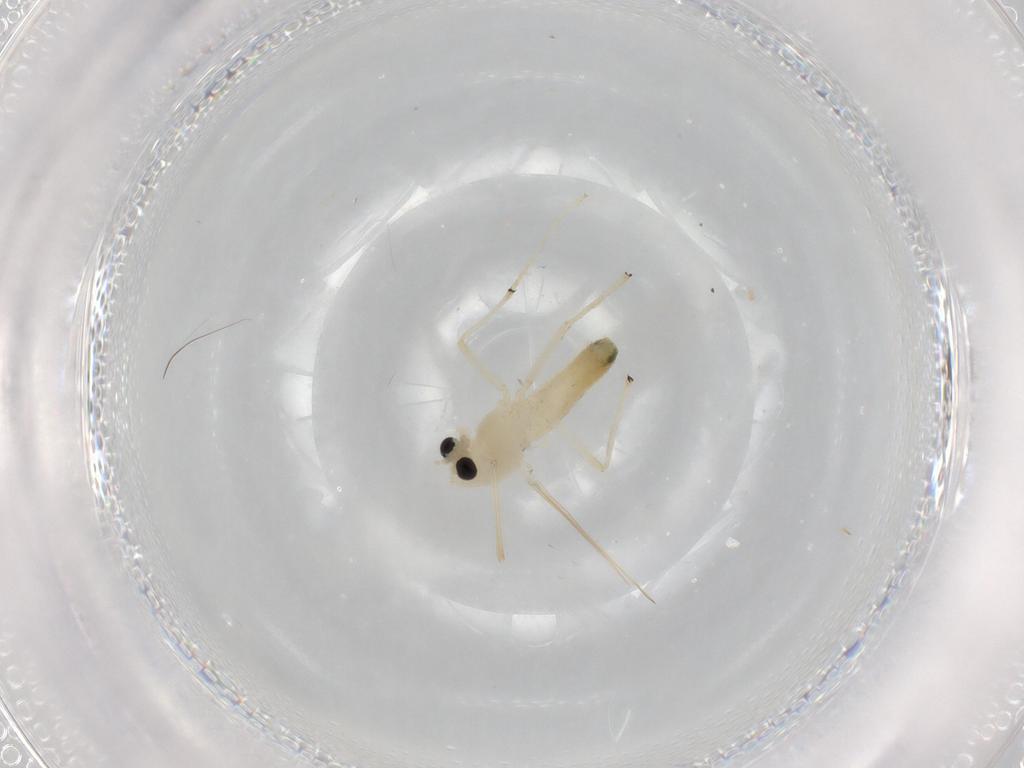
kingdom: Animalia
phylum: Arthropoda
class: Insecta
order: Diptera
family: Chironomidae
